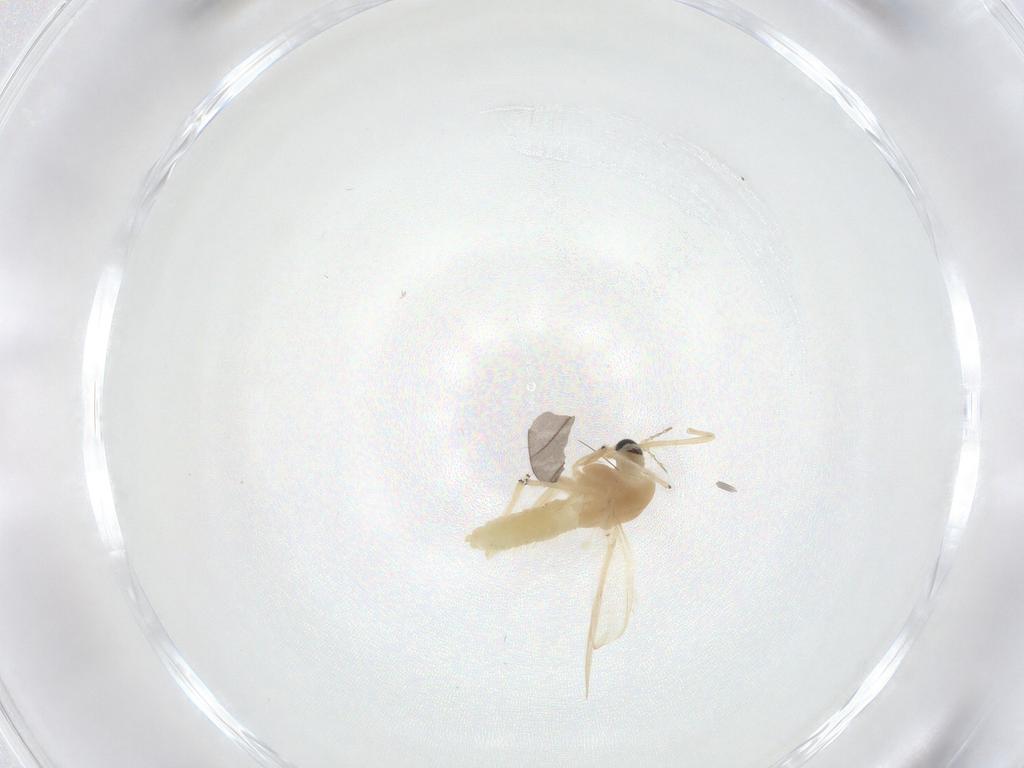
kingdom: Animalia
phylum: Arthropoda
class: Insecta
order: Diptera
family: Chironomidae
